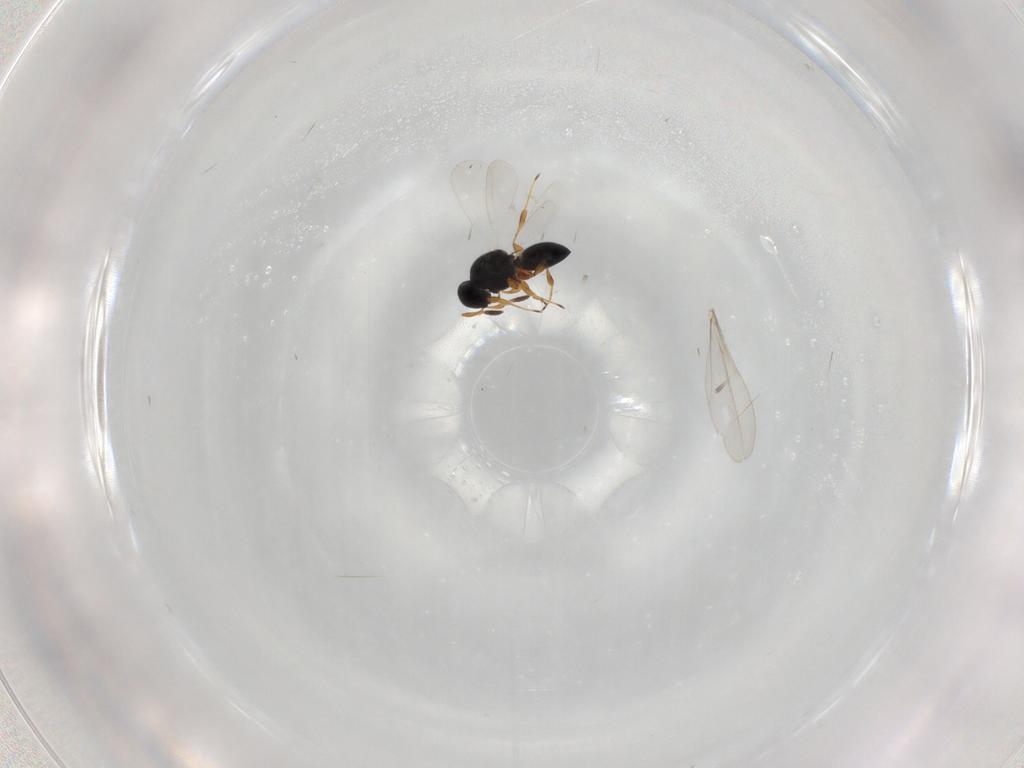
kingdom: Animalia
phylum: Arthropoda
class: Insecta
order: Hymenoptera
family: Platygastridae
